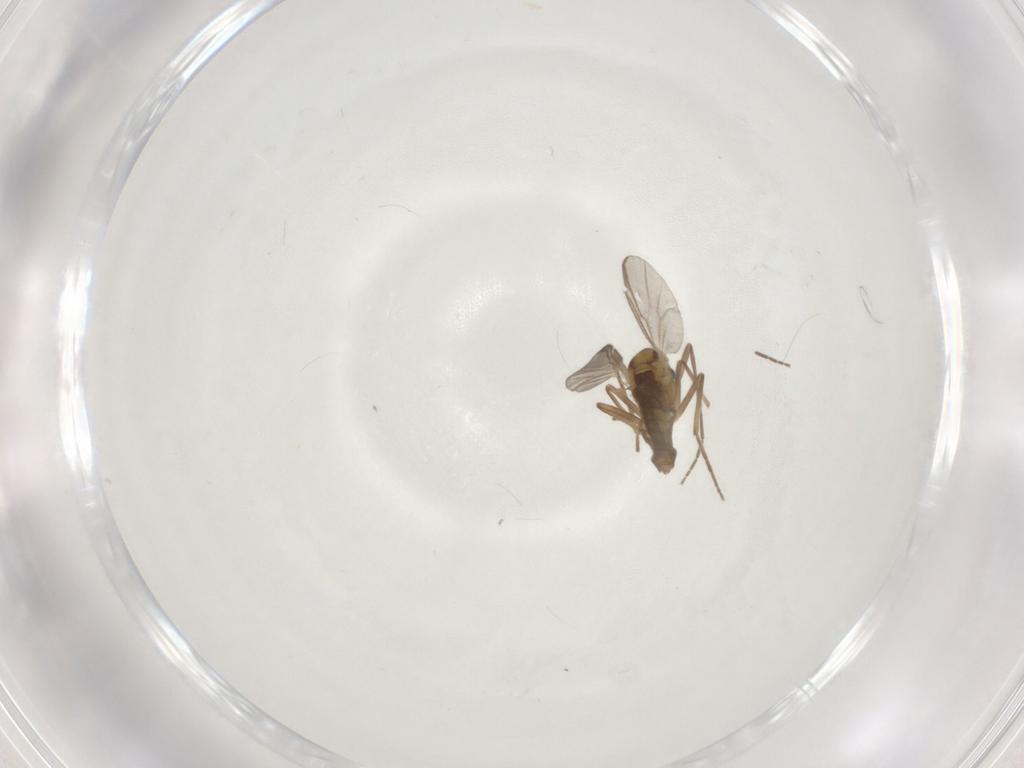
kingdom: Animalia
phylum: Arthropoda
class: Insecta
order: Diptera
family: Chironomidae
